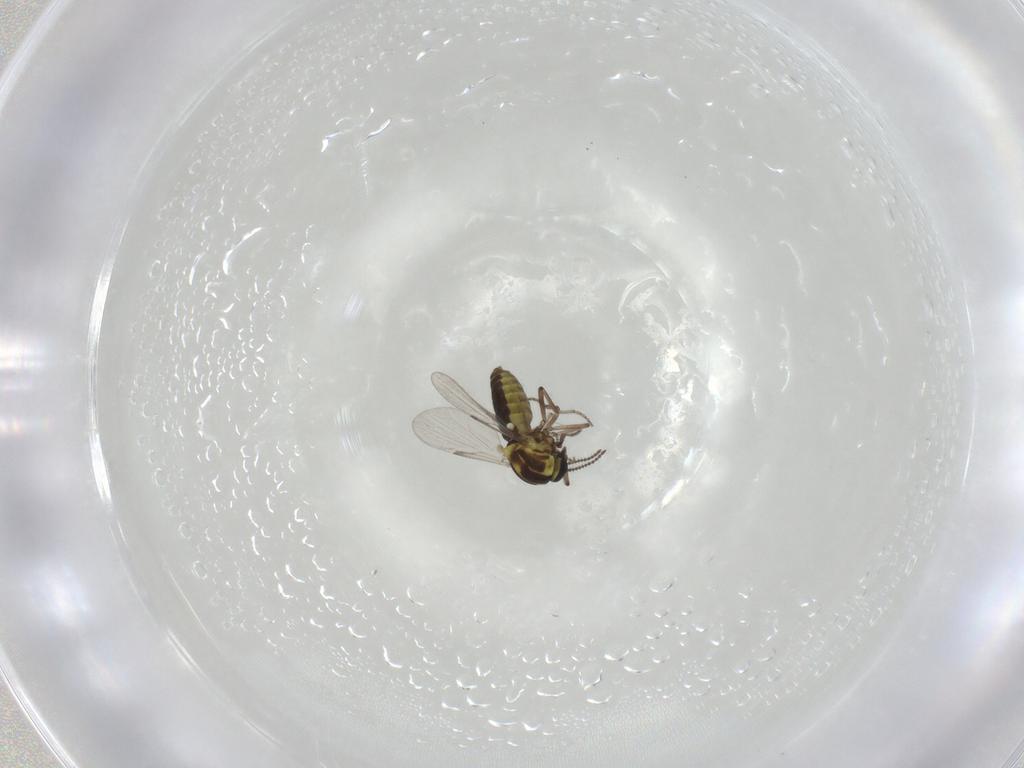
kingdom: Animalia
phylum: Arthropoda
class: Insecta
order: Diptera
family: Ceratopogonidae
